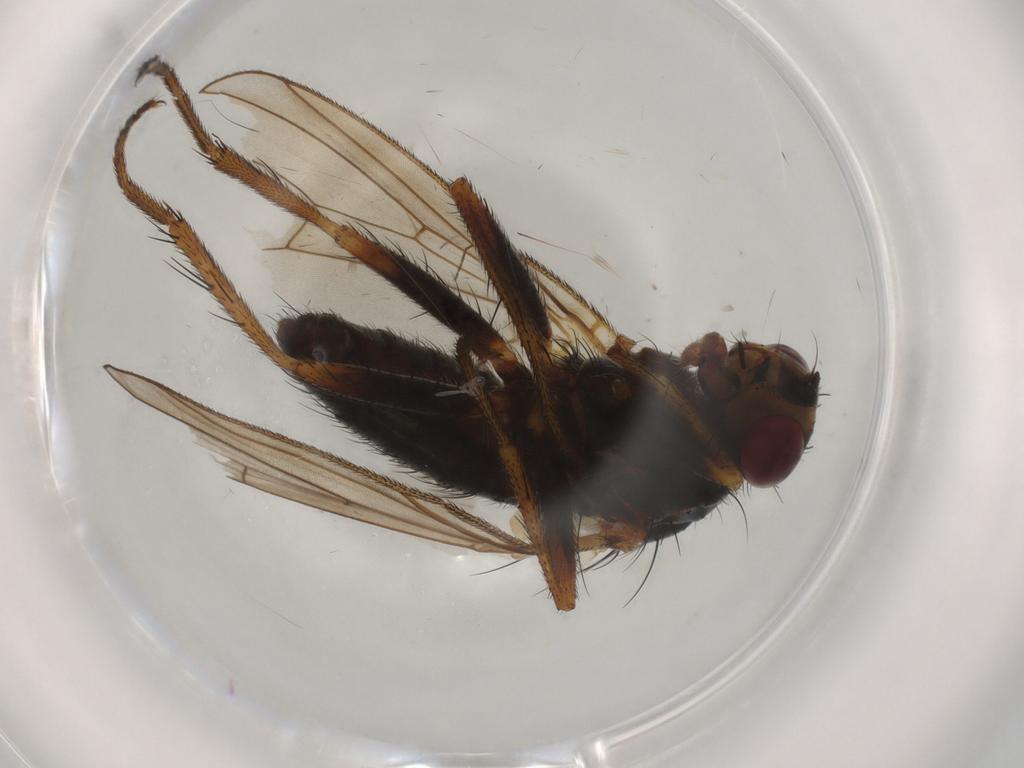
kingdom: Animalia
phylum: Arthropoda
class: Insecta
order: Diptera
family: Scathophagidae
